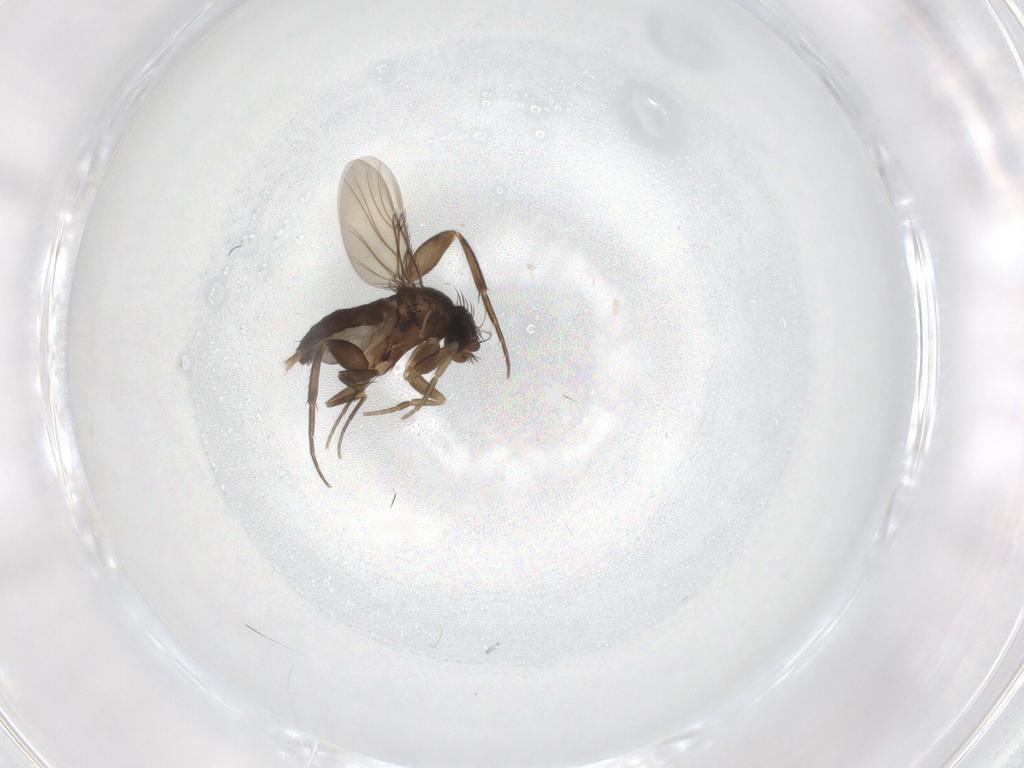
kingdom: Animalia
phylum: Arthropoda
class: Insecta
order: Diptera
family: Phoridae
